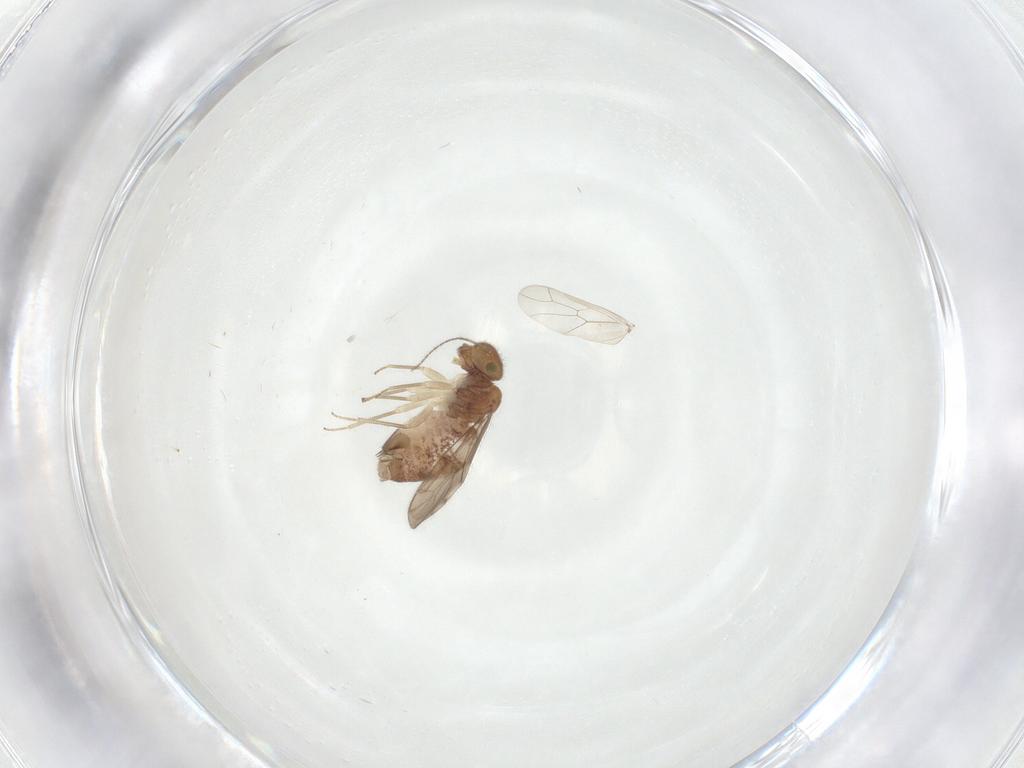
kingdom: Animalia
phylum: Arthropoda
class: Insecta
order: Psocodea
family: Ectopsocidae
